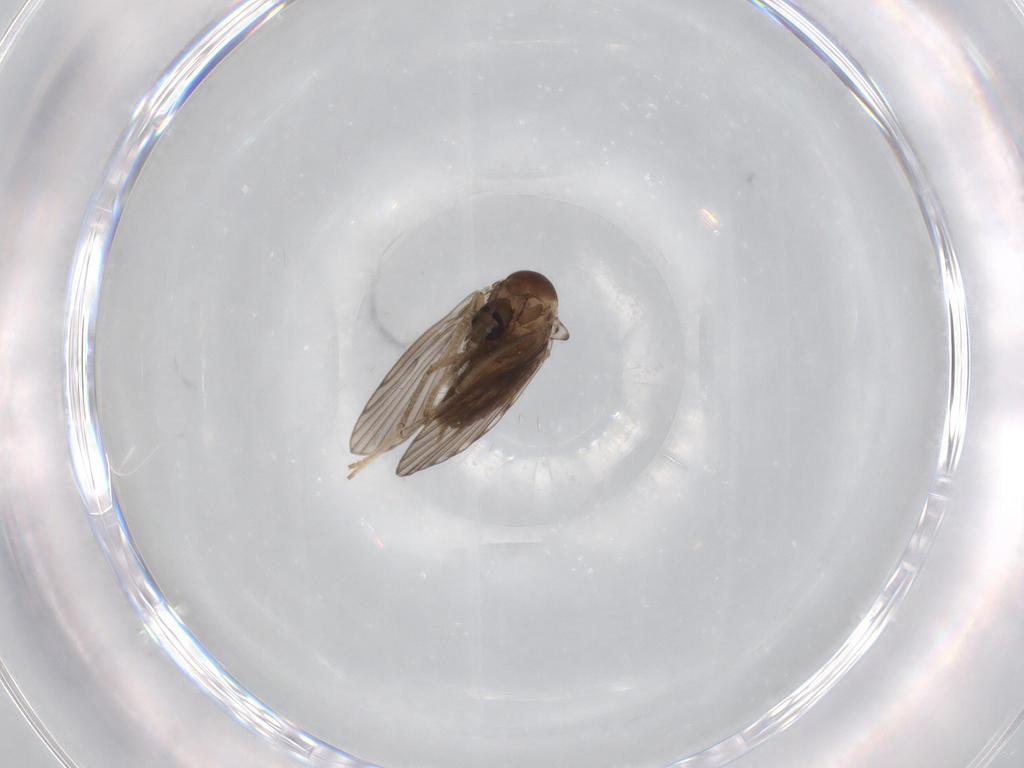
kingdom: Animalia
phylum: Arthropoda
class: Insecta
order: Diptera
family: Psychodidae
